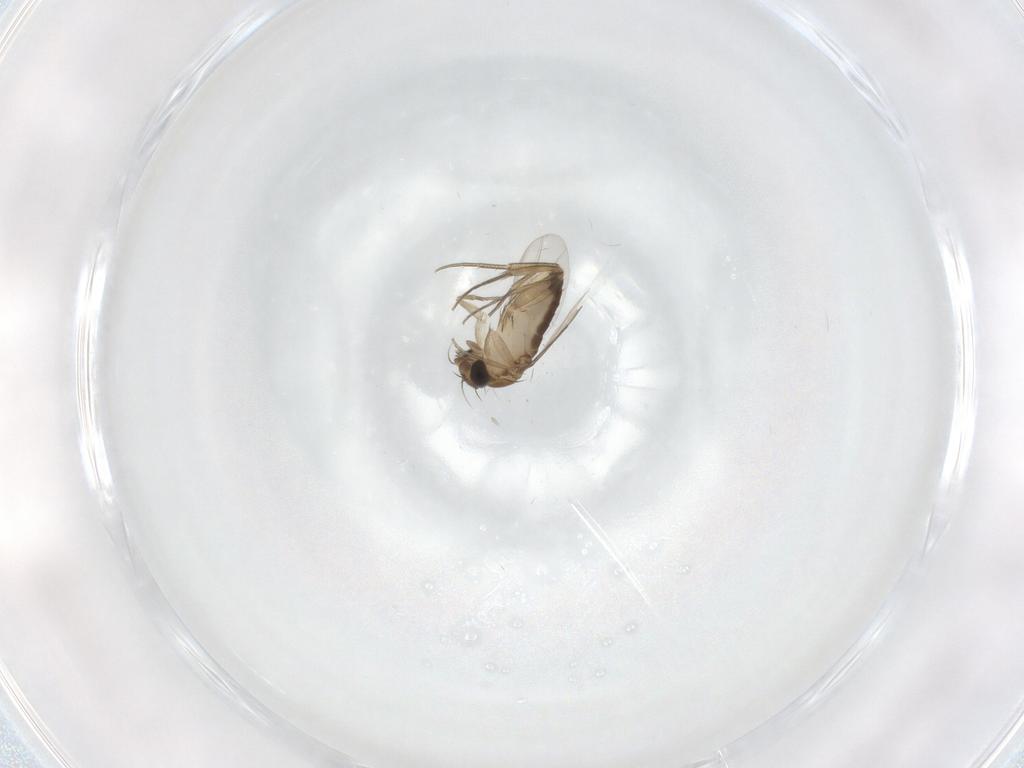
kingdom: Animalia
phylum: Arthropoda
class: Insecta
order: Diptera
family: Phoridae
